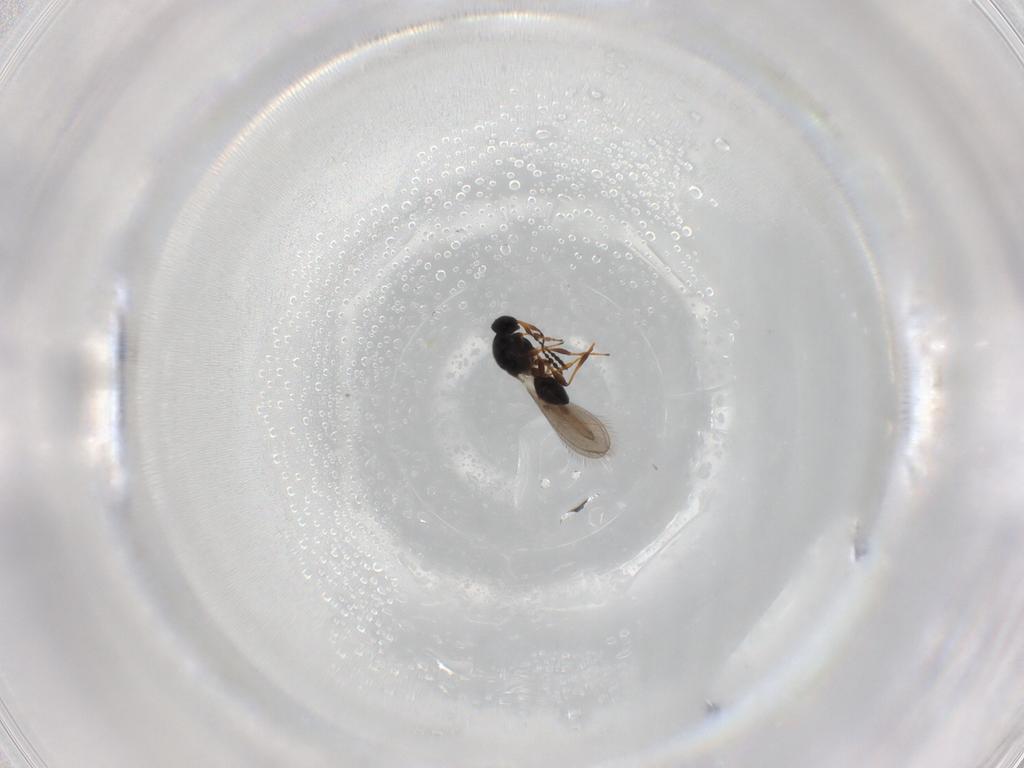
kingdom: Animalia
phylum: Arthropoda
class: Insecta
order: Hymenoptera
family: Platygastridae
